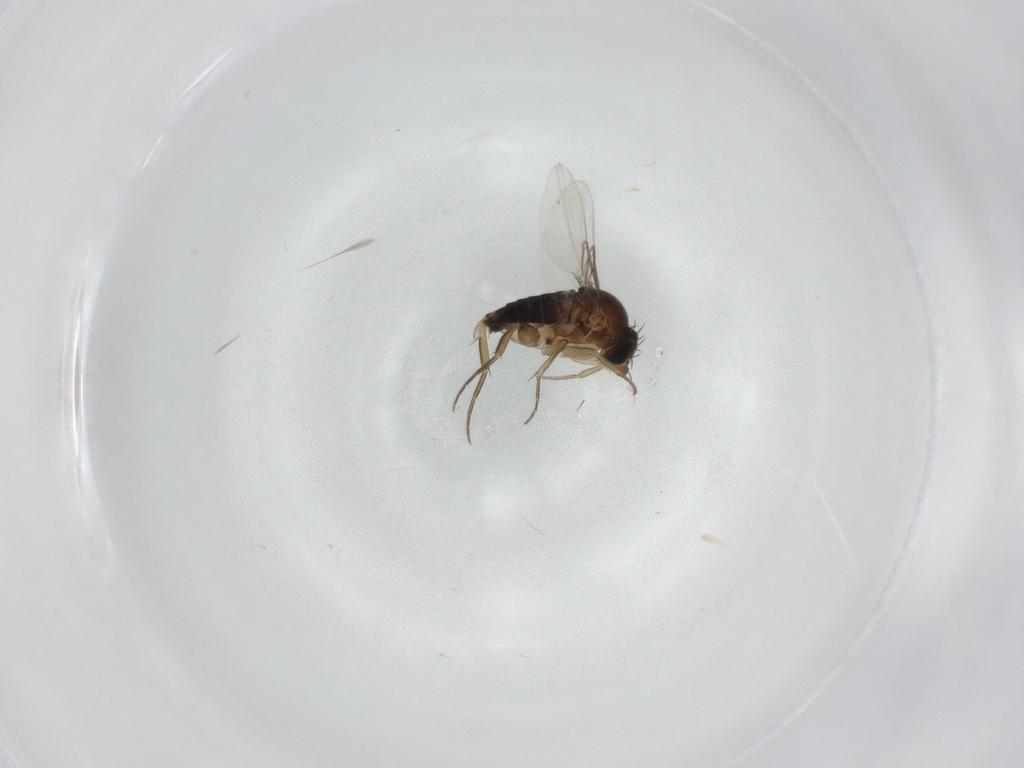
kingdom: Animalia
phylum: Arthropoda
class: Insecta
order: Diptera
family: Phoridae
